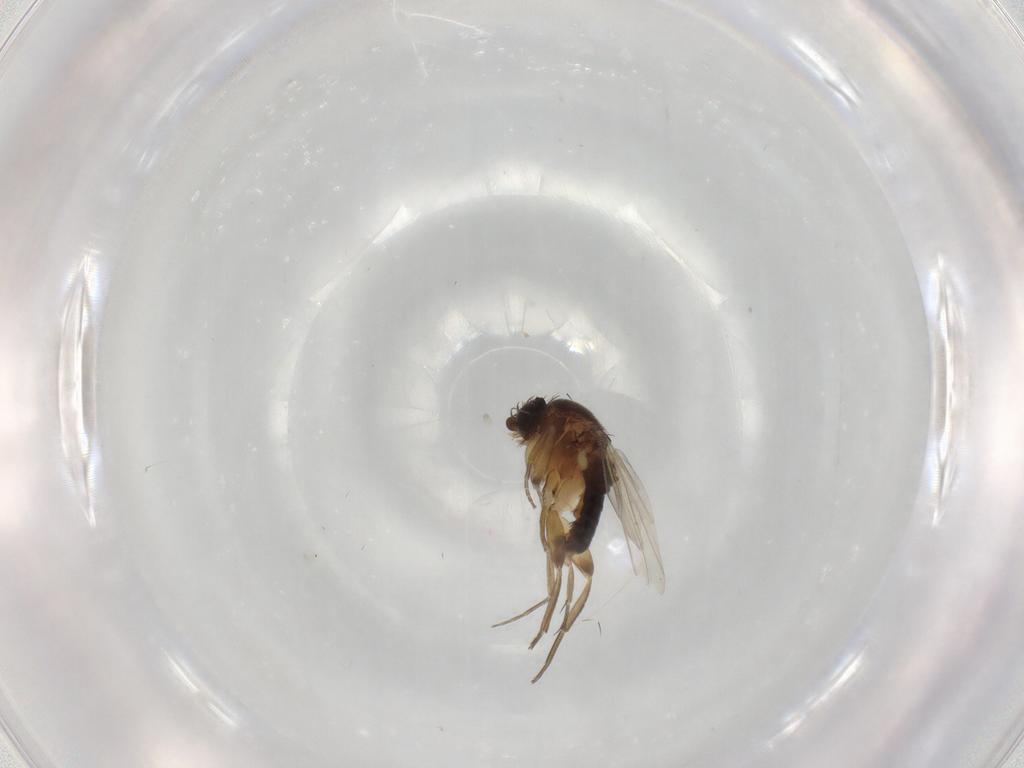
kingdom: Animalia
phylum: Arthropoda
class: Insecta
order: Diptera
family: Phoridae
